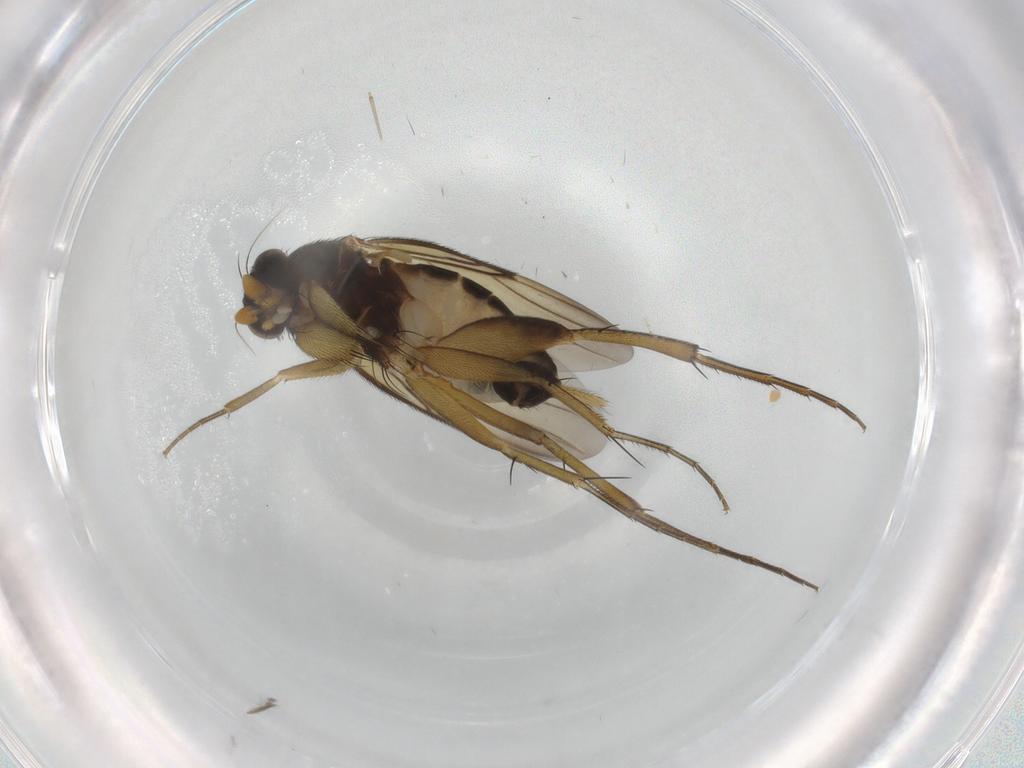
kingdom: Animalia
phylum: Arthropoda
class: Insecta
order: Diptera
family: Phoridae
